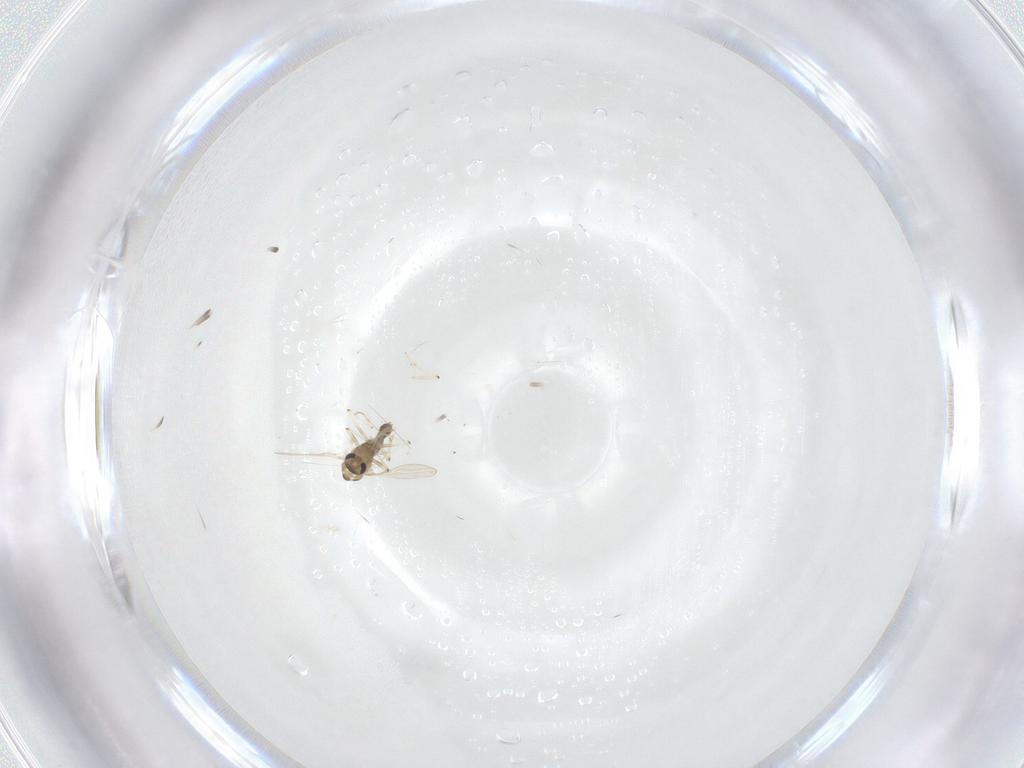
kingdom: Animalia
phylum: Arthropoda
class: Insecta
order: Diptera
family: Chironomidae
